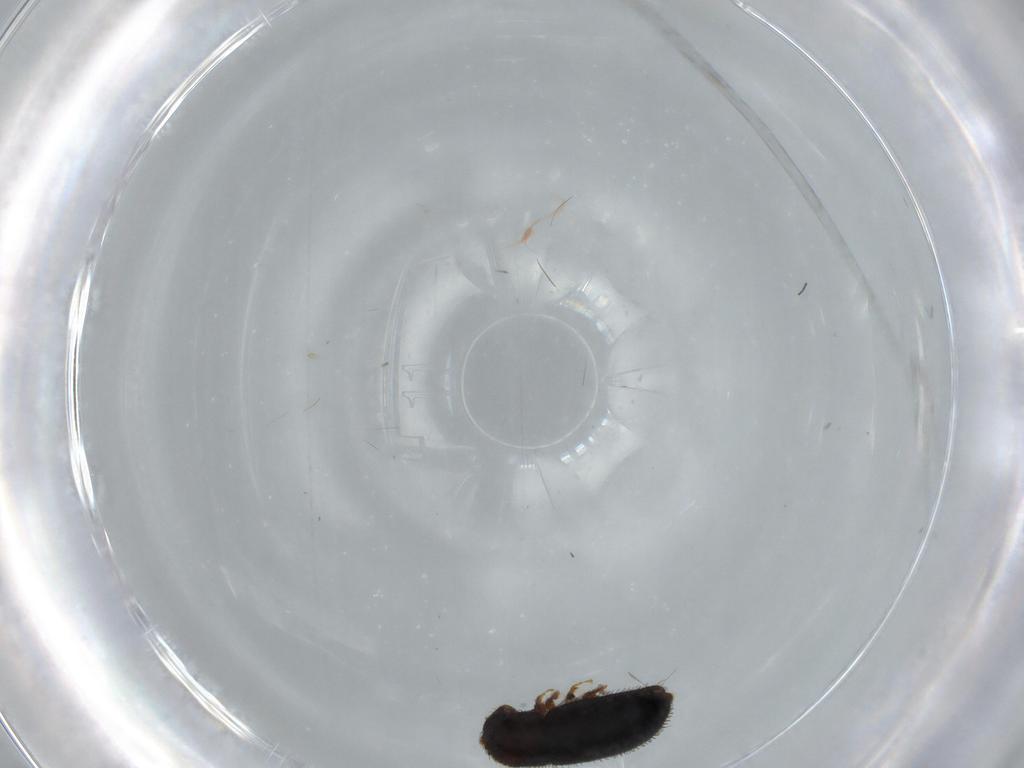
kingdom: Animalia
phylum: Arthropoda
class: Insecta
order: Coleoptera
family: Curculionidae
